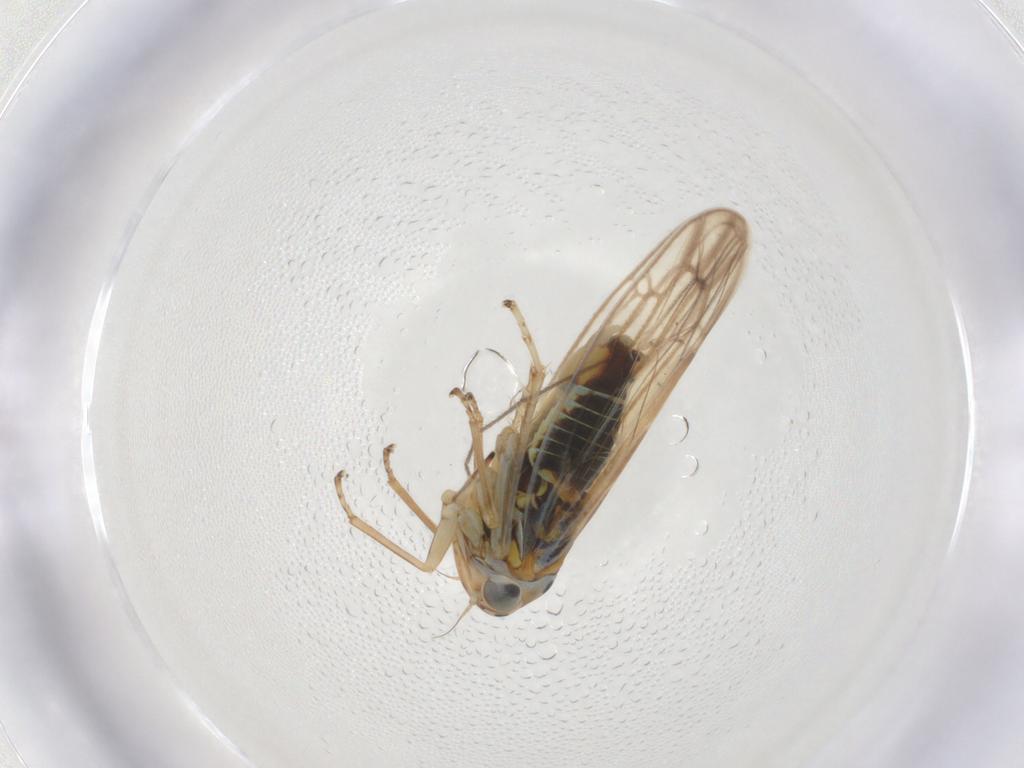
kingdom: Animalia
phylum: Arthropoda
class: Insecta
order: Hemiptera
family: Cicadellidae
